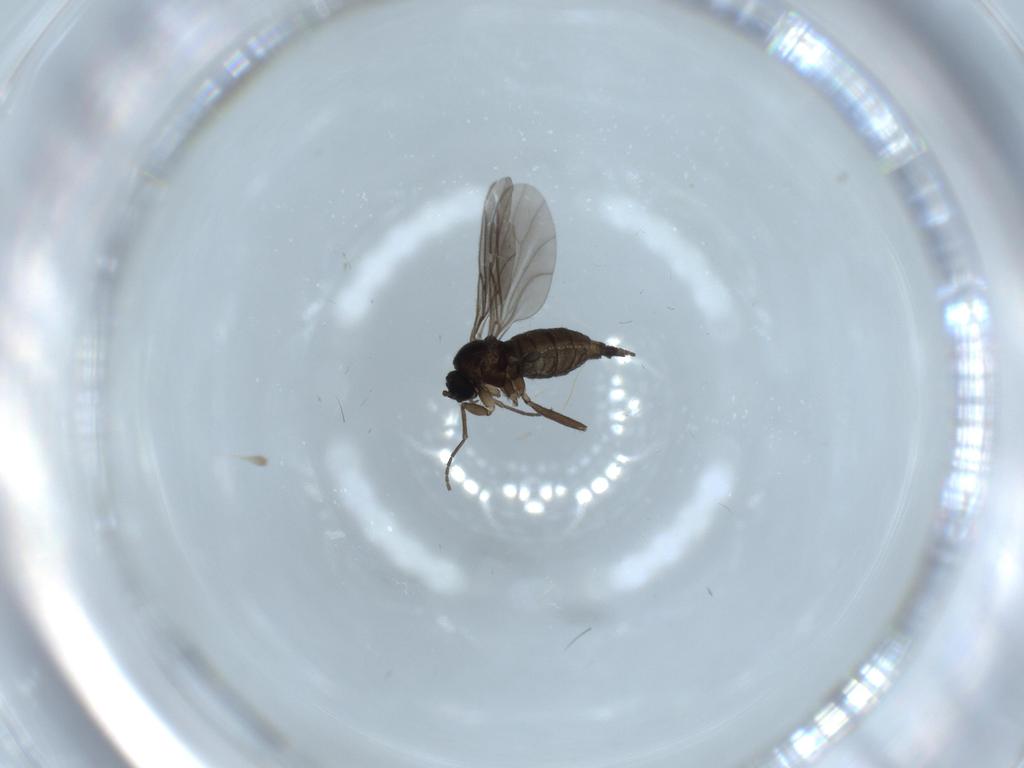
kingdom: Animalia
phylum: Arthropoda
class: Insecta
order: Diptera
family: Sciaridae
